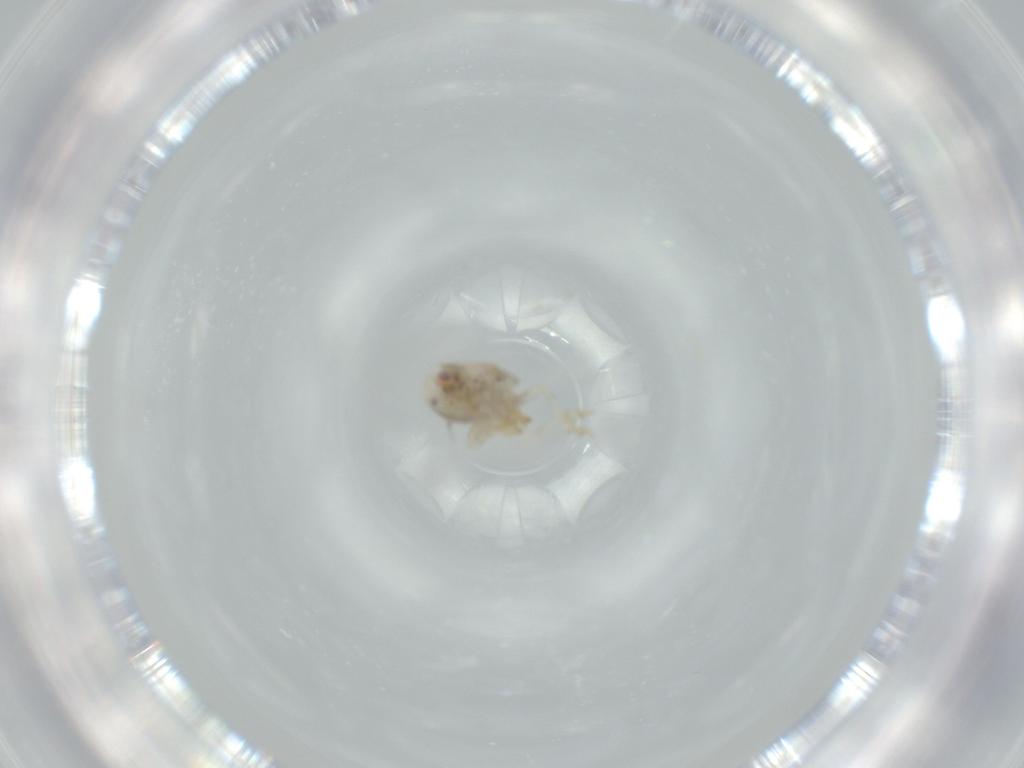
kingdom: Animalia
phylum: Arthropoda
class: Insecta
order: Hemiptera
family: Acanaloniidae
